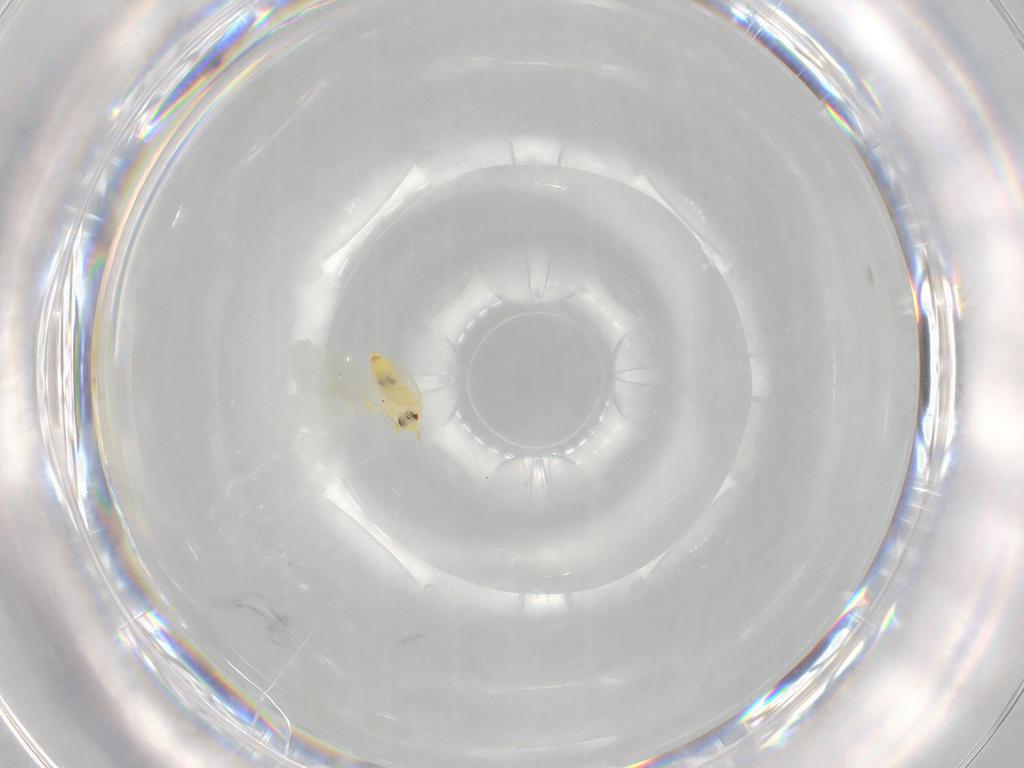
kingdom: Animalia
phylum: Arthropoda
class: Insecta
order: Hemiptera
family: Aleyrodidae
